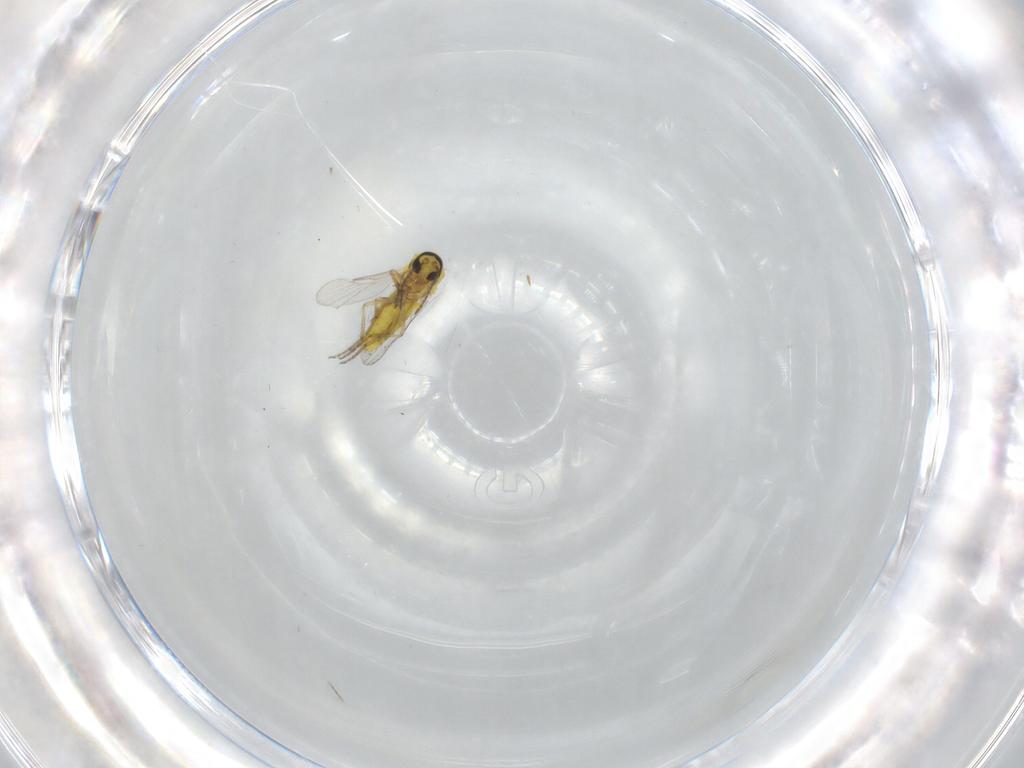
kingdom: Animalia
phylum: Arthropoda
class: Insecta
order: Diptera
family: Ceratopogonidae
